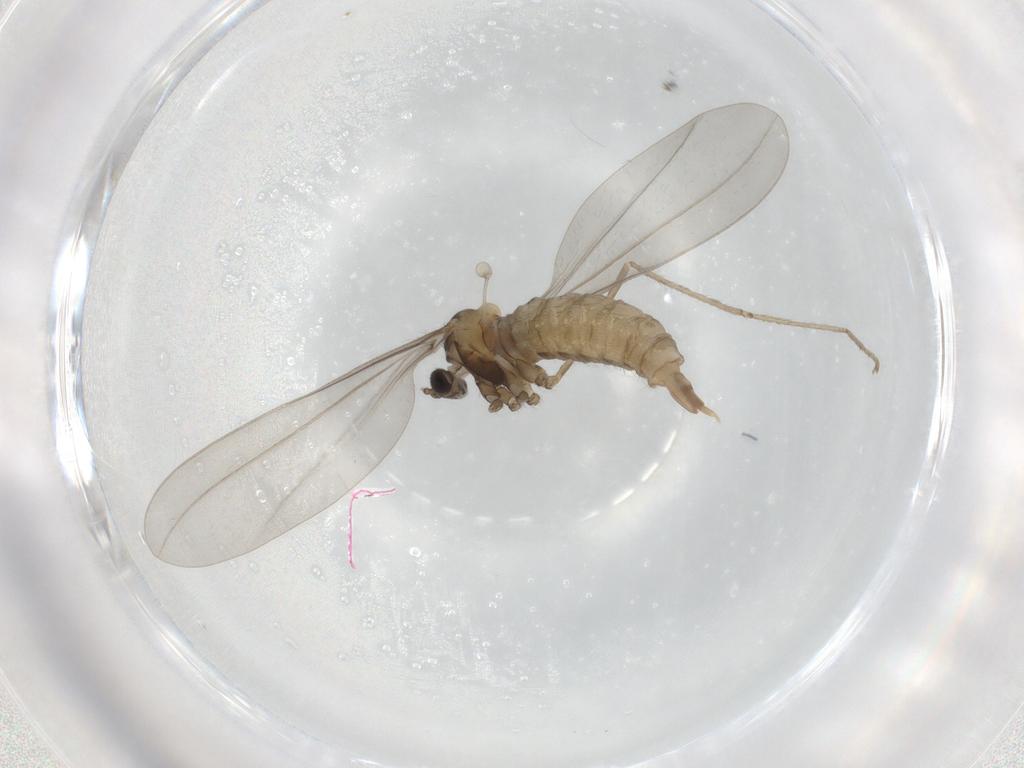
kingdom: Animalia
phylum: Arthropoda
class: Insecta
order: Diptera
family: Cecidomyiidae
